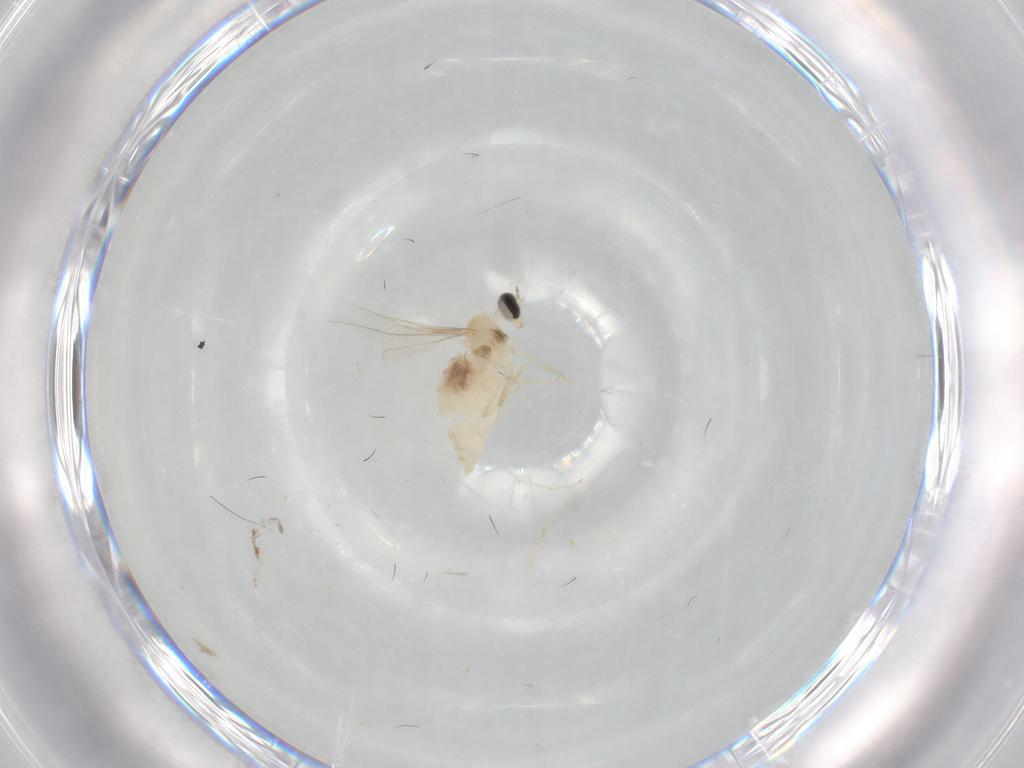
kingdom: Animalia
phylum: Arthropoda
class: Insecta
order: Diptera
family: Cecidomyiidae
